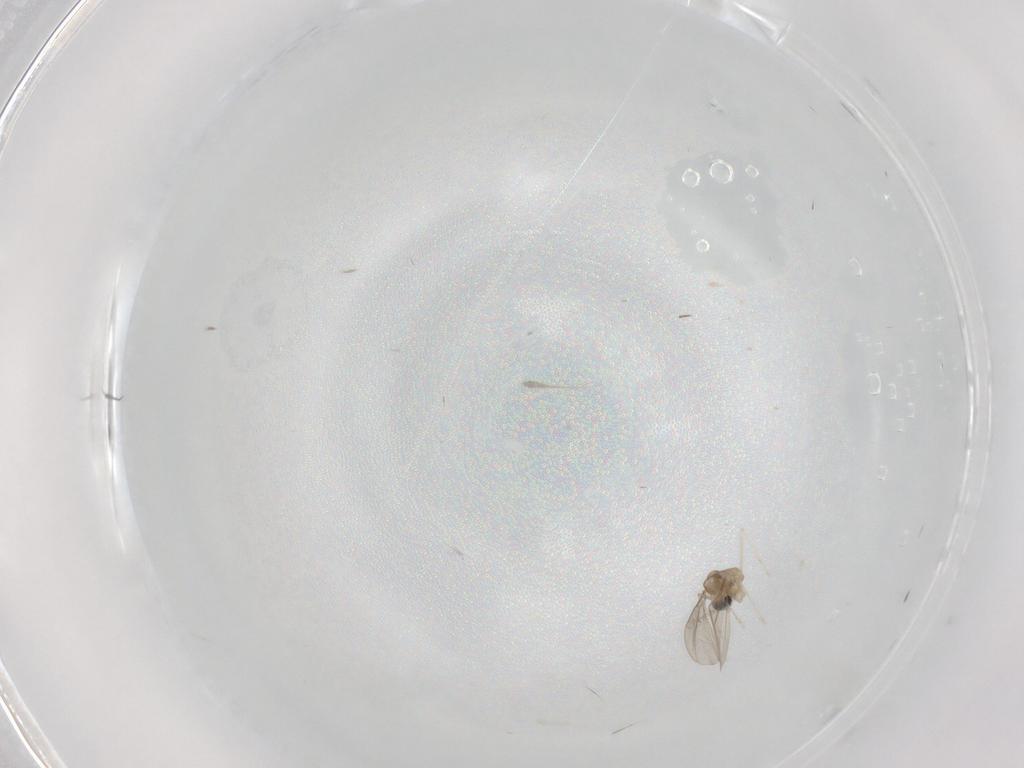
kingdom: Animalia
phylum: Arthropoda
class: Insecta
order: Diptera
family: Cecidomyiidae
